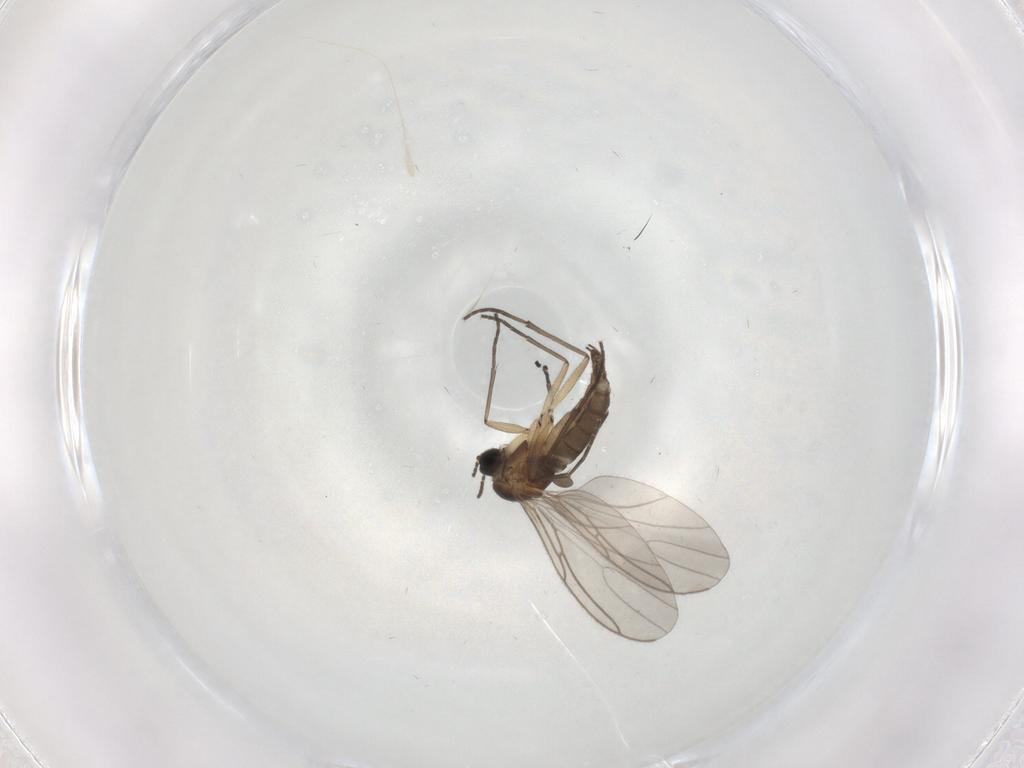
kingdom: Animalia
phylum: Arthropoda
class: Insecta
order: Diptera
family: Sciaridae
